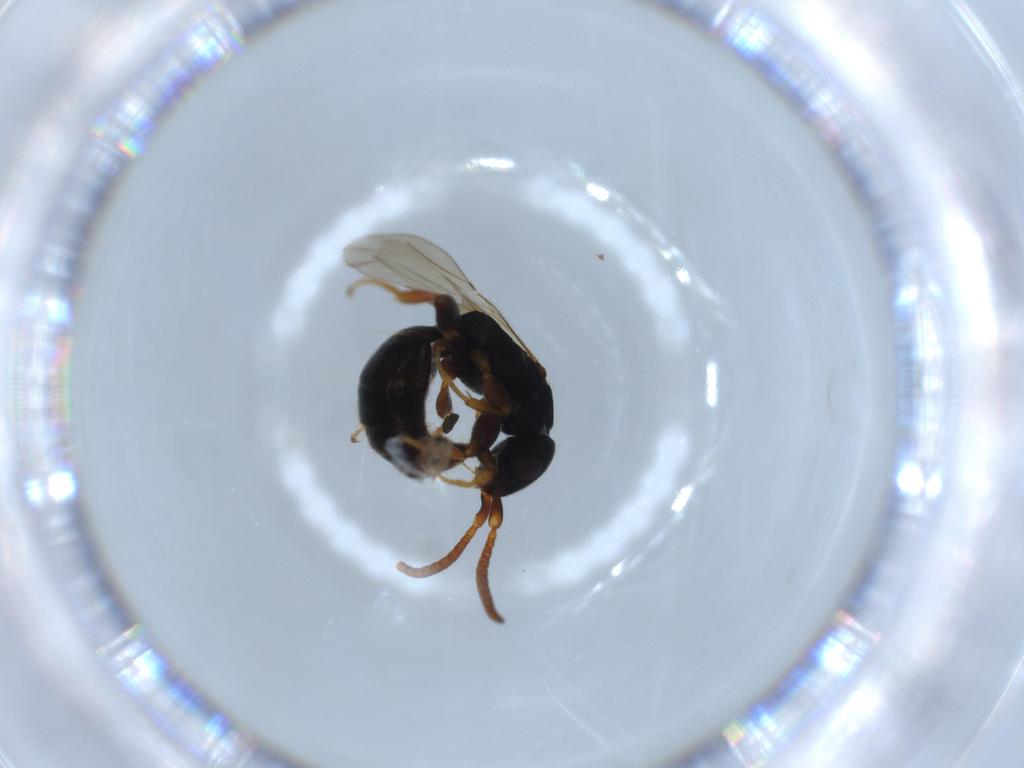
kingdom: Animalia
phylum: Arthropoda
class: Insecta
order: Hymenoptera
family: Bethylidae
